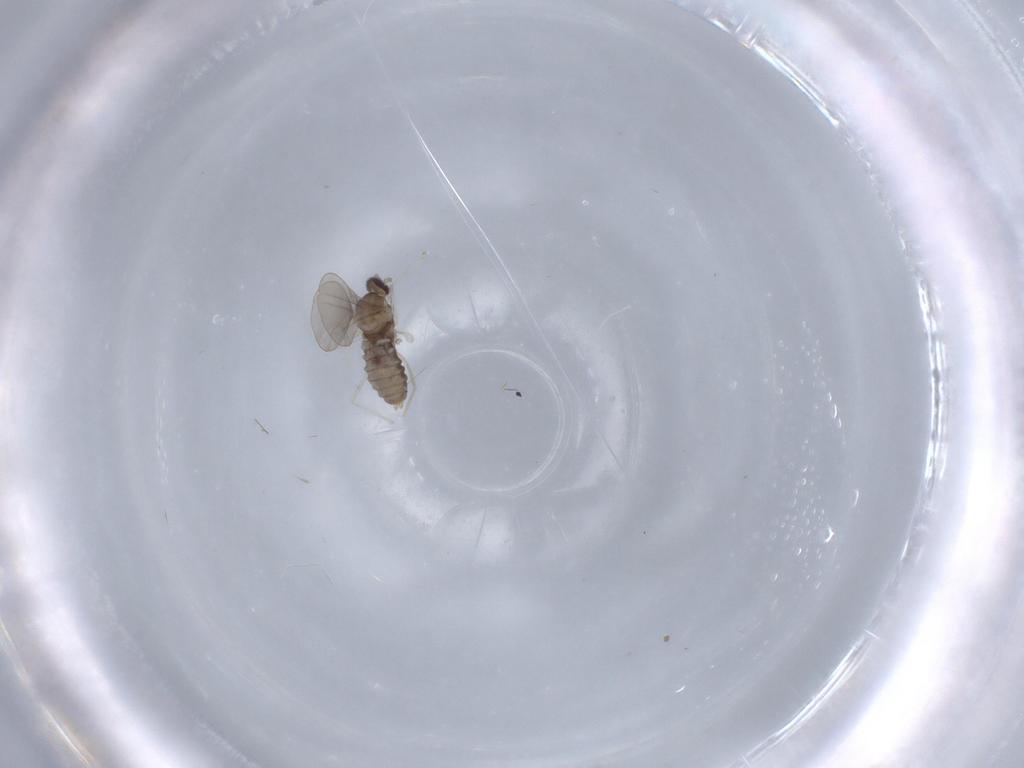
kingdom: Animalia
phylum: Arthropoda
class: Insecta
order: Diptera
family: Cecidomyiidae
